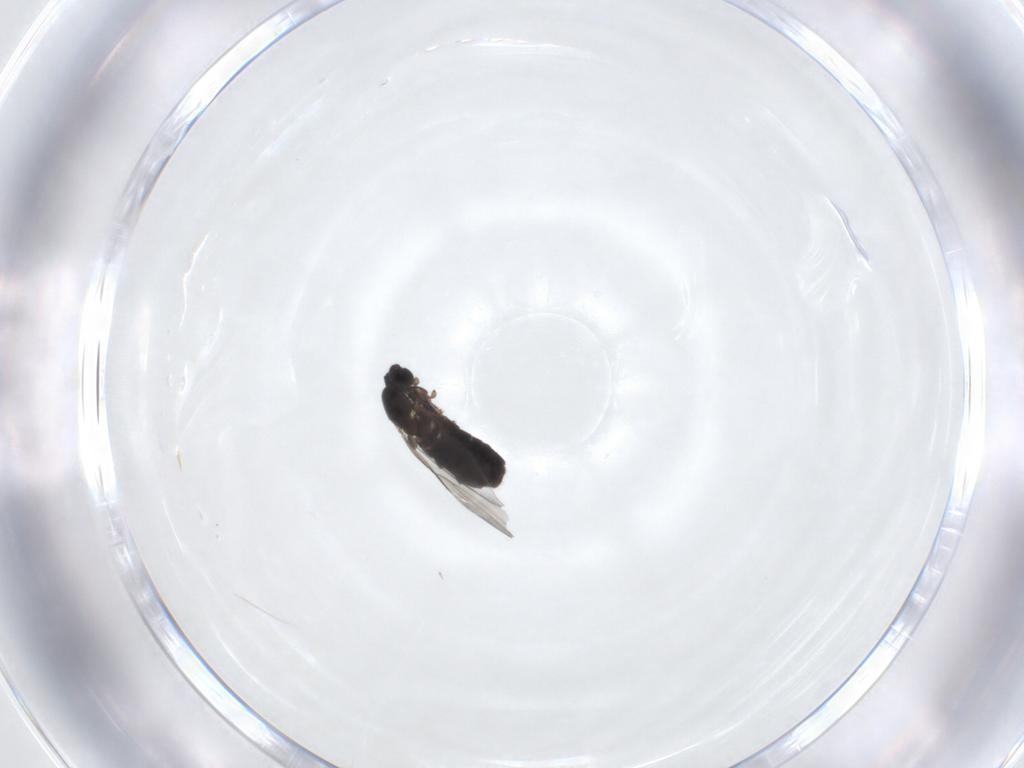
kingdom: Animalia
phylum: Arthropoda
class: Insecta
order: Diptera
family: Scatopsidae
